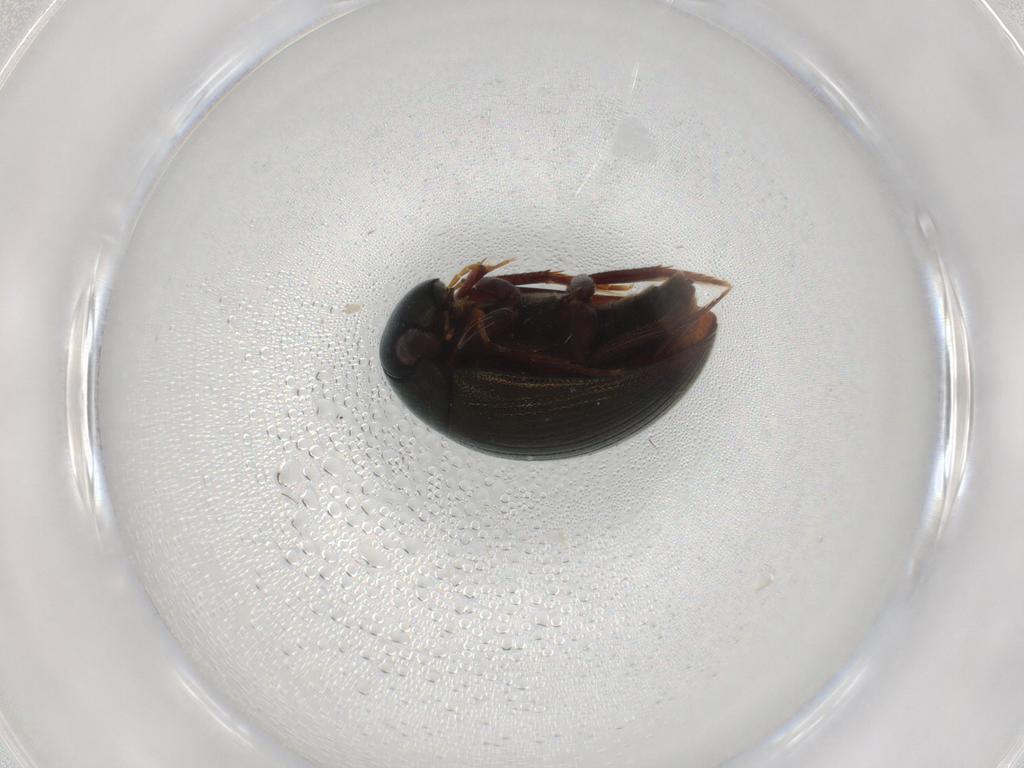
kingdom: Animalia
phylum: Arthropoda
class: Insecta
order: Coleoptera
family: Scarabaeidae
